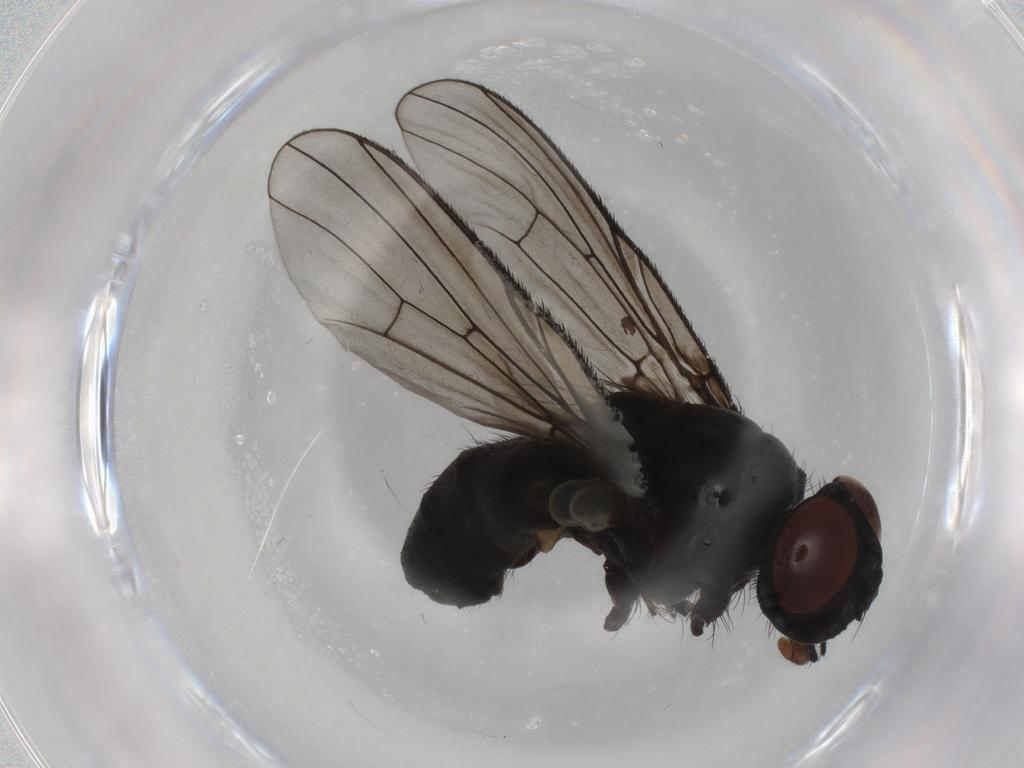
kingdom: Animalia
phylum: Arthropoda
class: Insecta
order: Diptera
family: Muscidae
